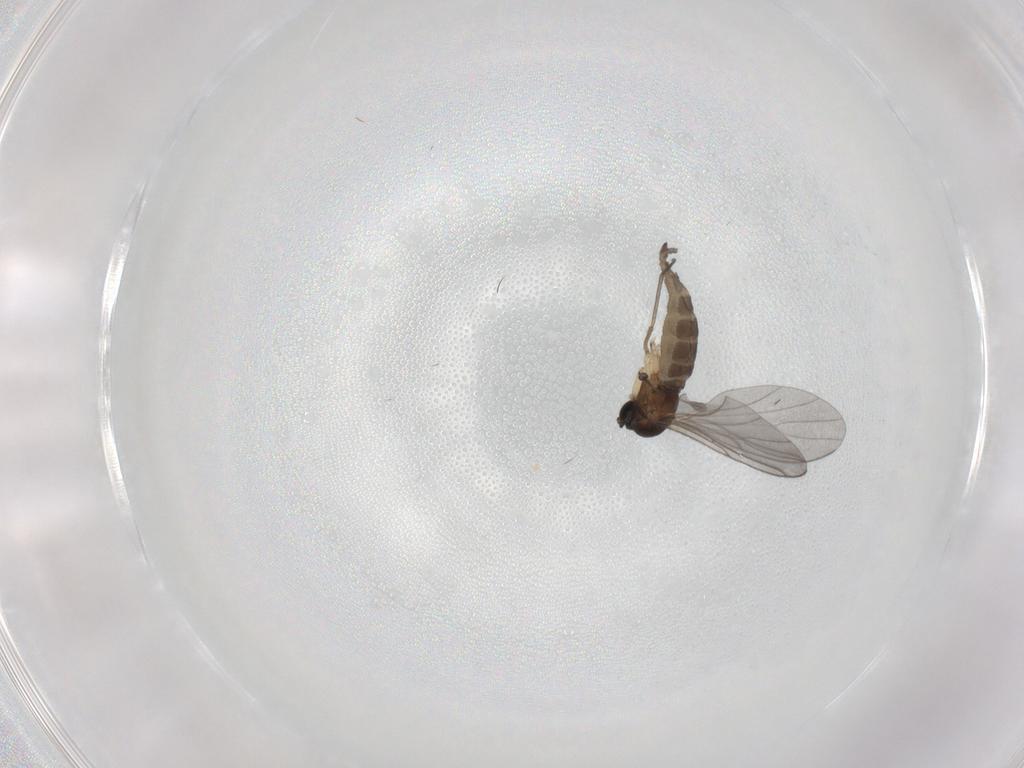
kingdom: Animalia
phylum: Arthropoda
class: Insecta
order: Diptera
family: Sciaridae
